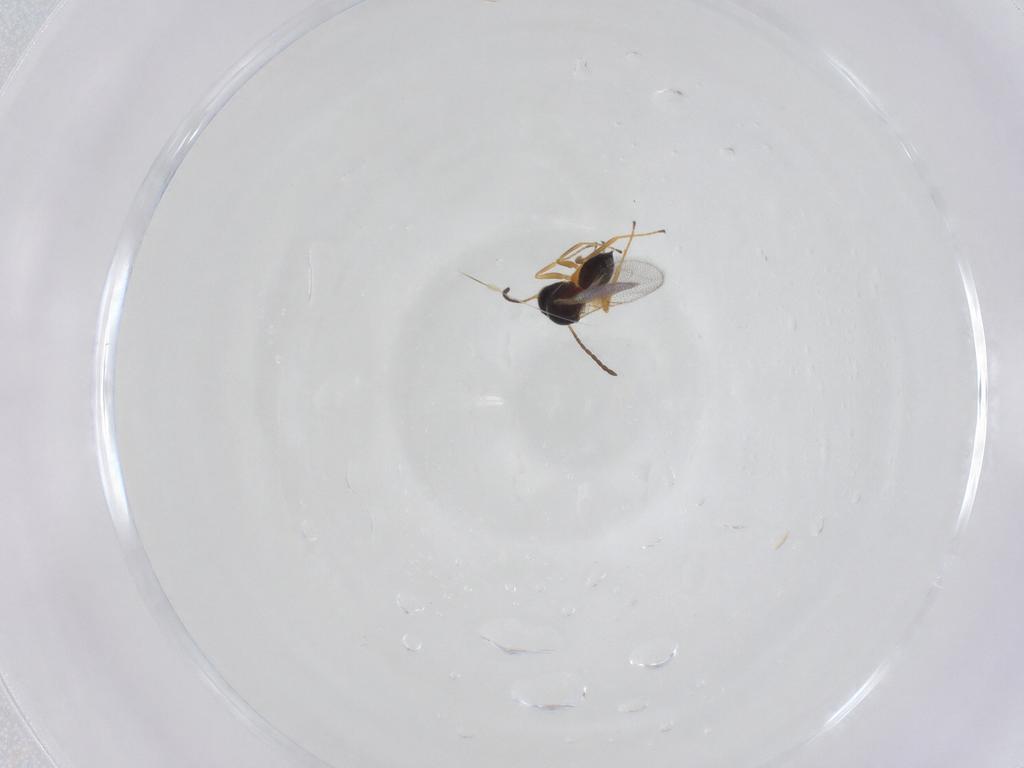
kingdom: Animalia
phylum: Arthropoda
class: Insecta
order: Hymenoptera
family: Figitidae
